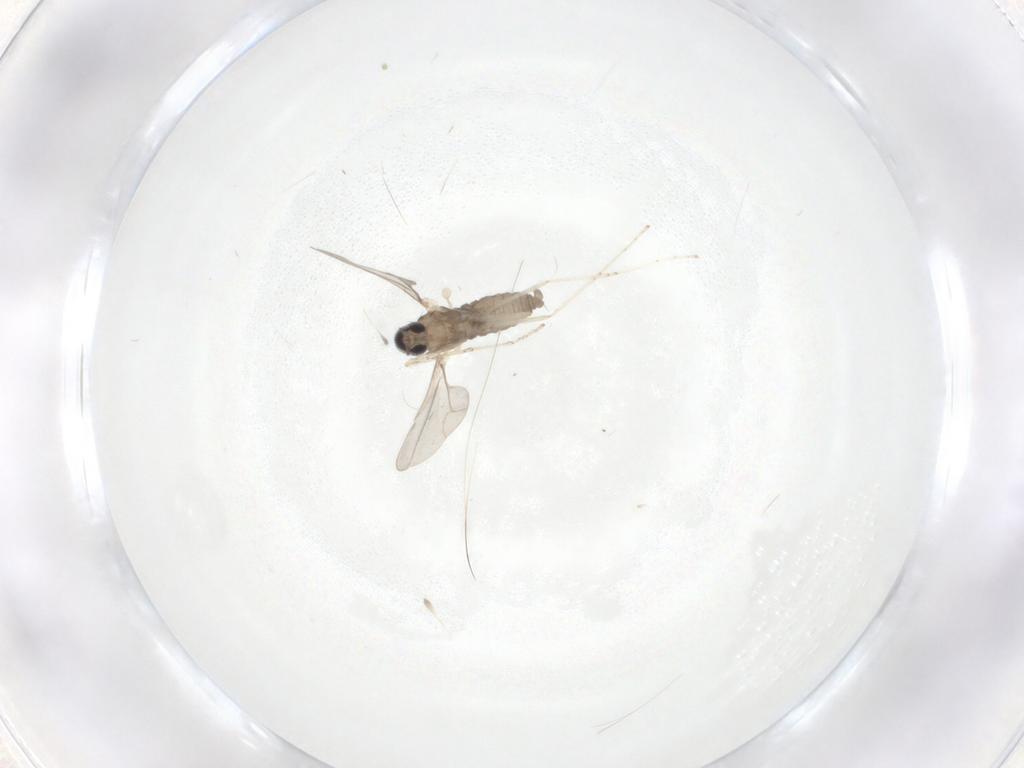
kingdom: Animalia
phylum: Arthropoda
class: Insecta
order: Diptera
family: Cecidomyiidae
